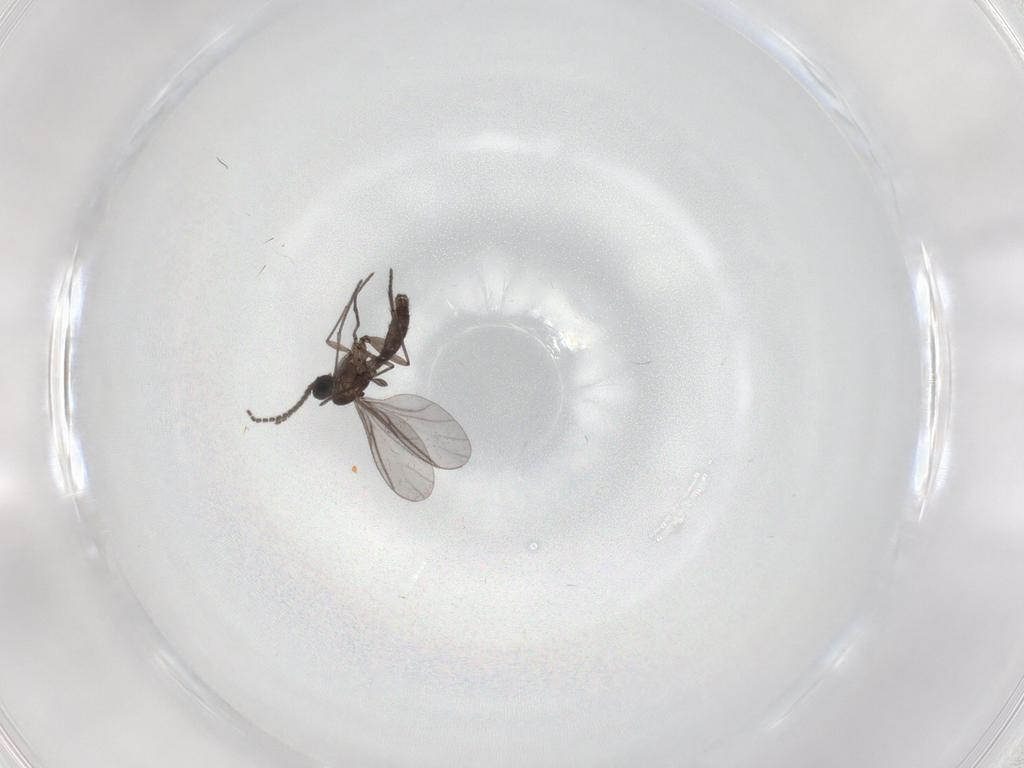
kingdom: Animalia
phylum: Arthropoda
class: Insecta
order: Diptera
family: Sciaridae
